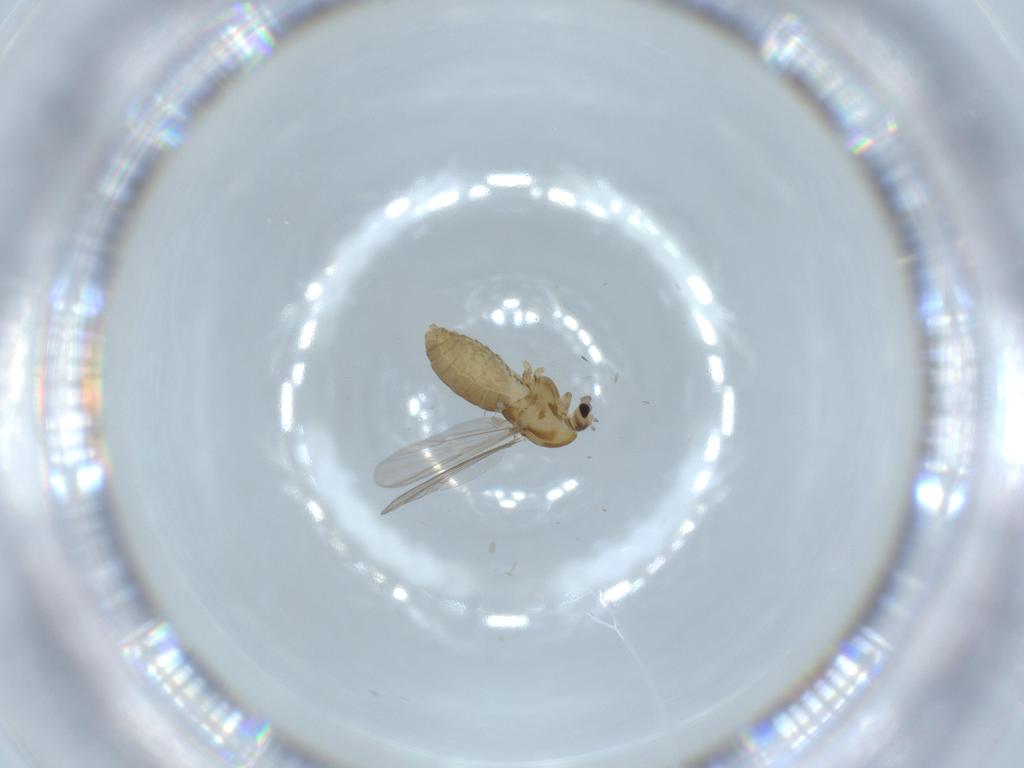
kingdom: Animalia
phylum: Arthropoda
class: Insecta
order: Diptera
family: Chironomidae
